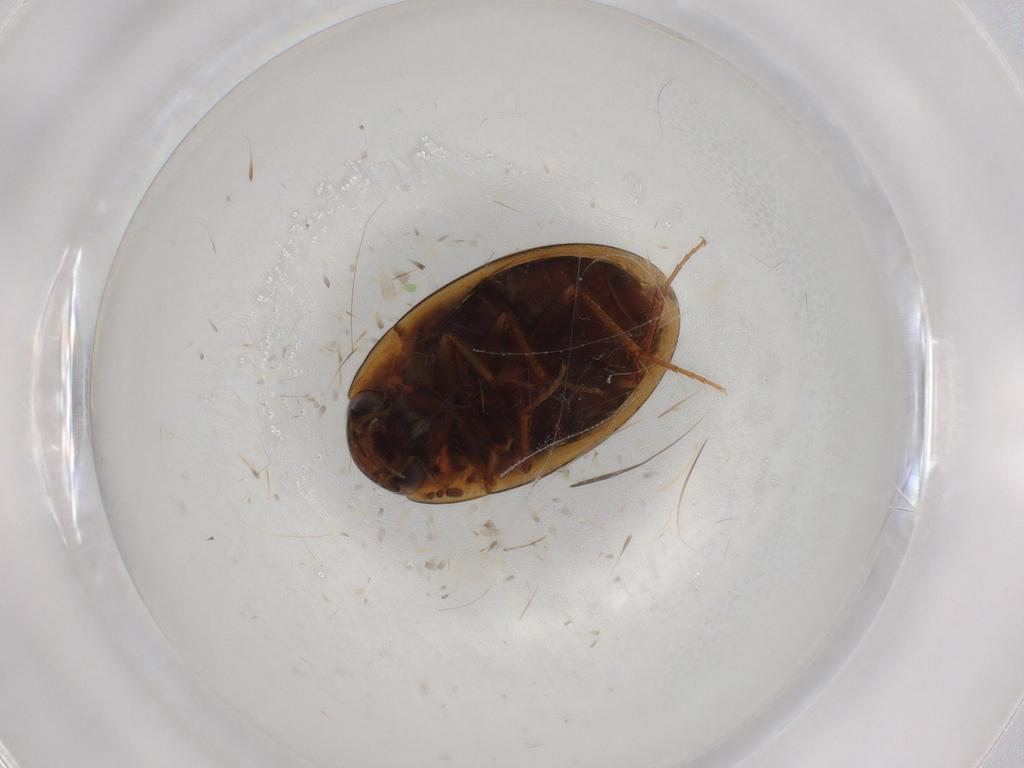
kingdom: Animalia
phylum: Arthropoda
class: Insecta
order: Coleoptera
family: Hydrophilidae
